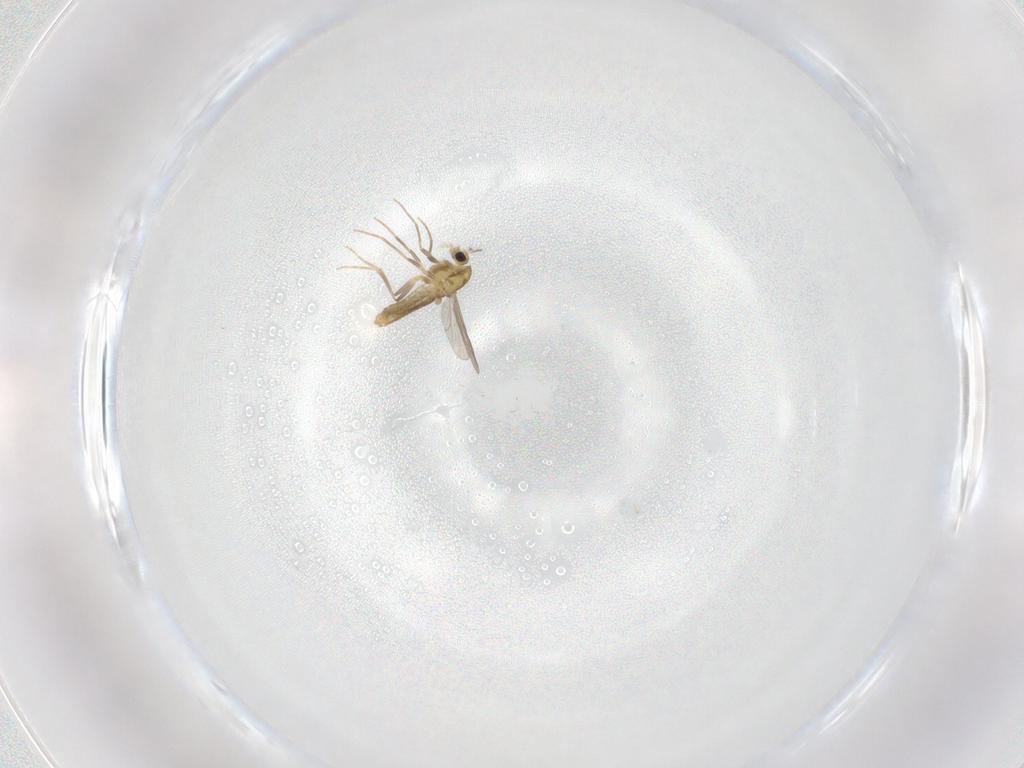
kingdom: Animalia
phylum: Arthropoda
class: Insecta
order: Diptera
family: Chironomidae
